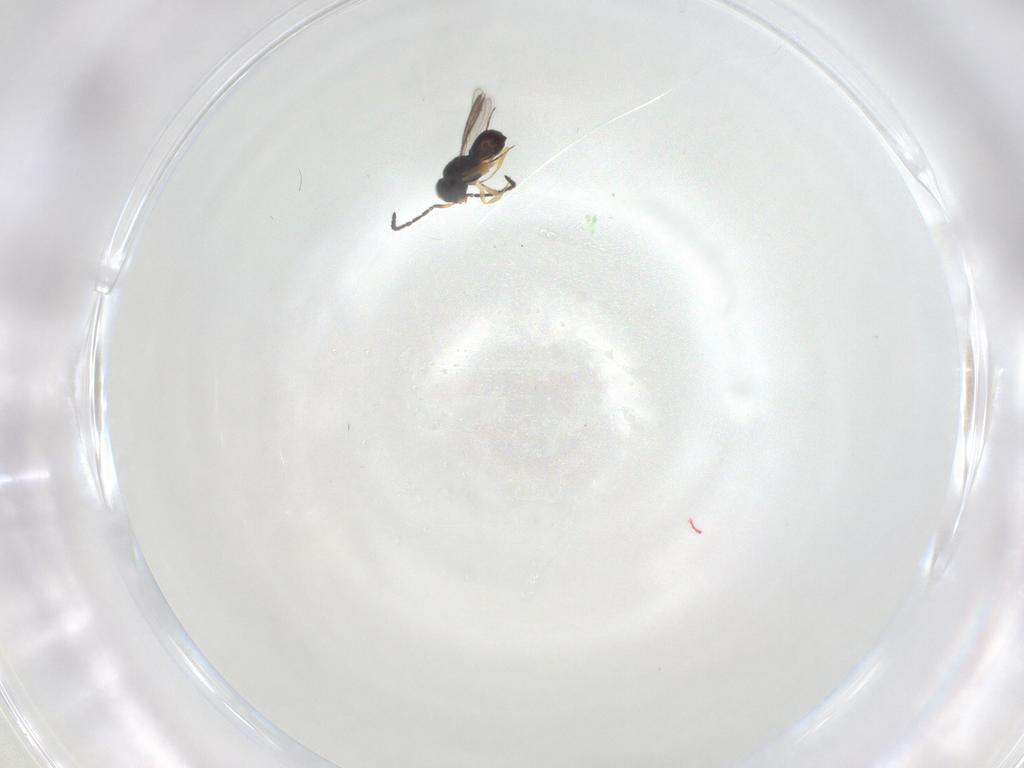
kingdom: Animalia
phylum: Arthropoda
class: Insecta
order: Hymenoptera
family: Scelionidae
